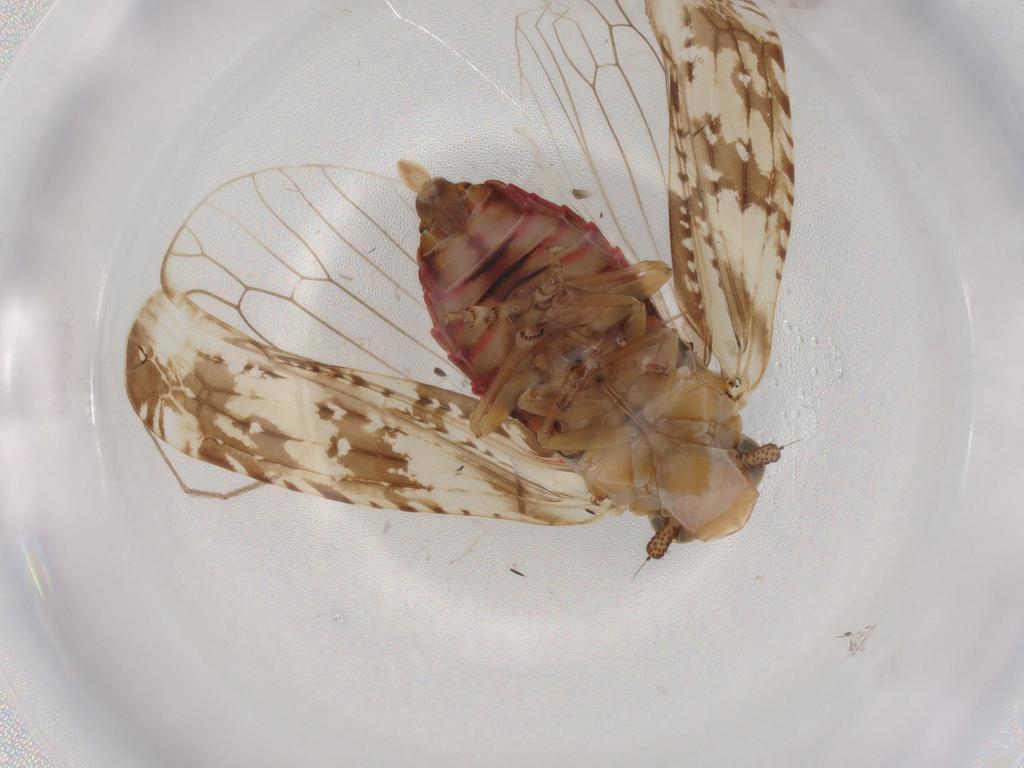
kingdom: Animalia
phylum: Arthropoda
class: Insecta
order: Hemiptera
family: Achilidae
